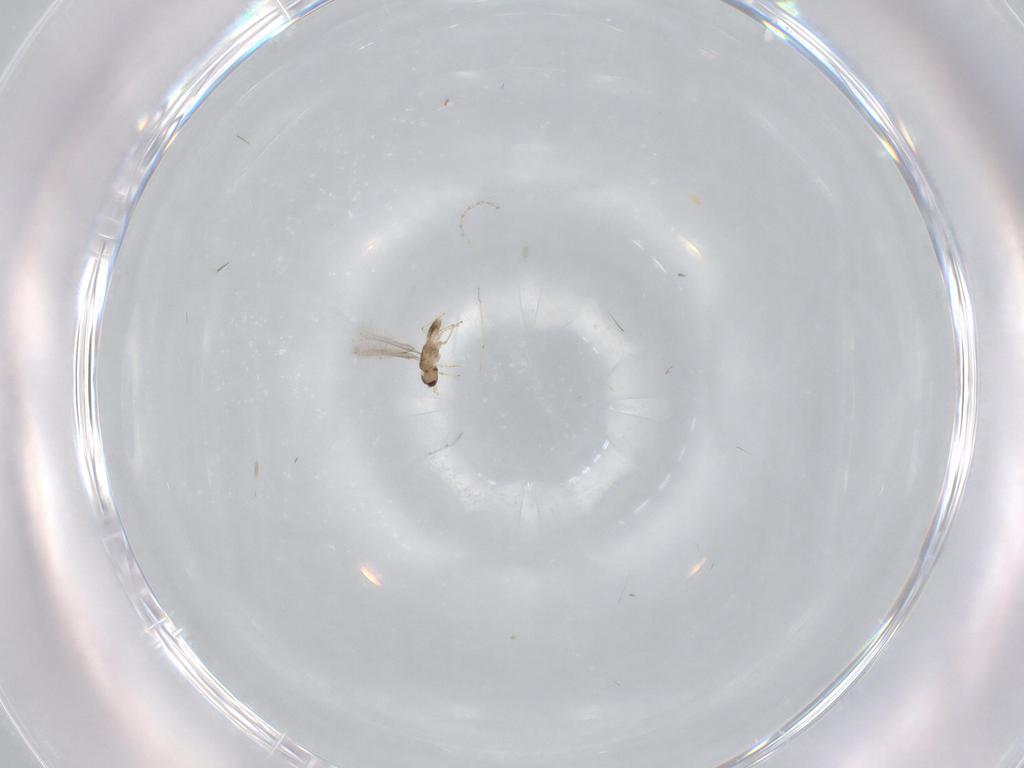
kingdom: Animalia
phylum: Arthropoda
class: Insecta
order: Diptera
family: Cecidomyiidae
